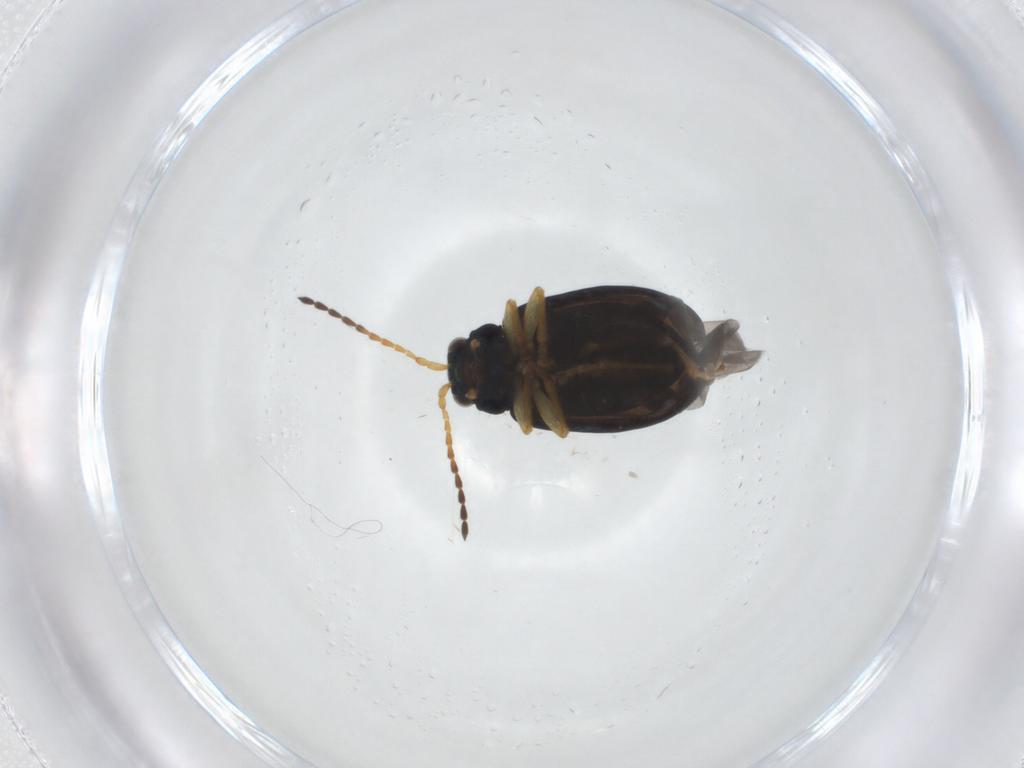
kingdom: Animalia
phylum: Arthropoda
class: Insecta
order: Coleoptera
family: Chrysomelidae
